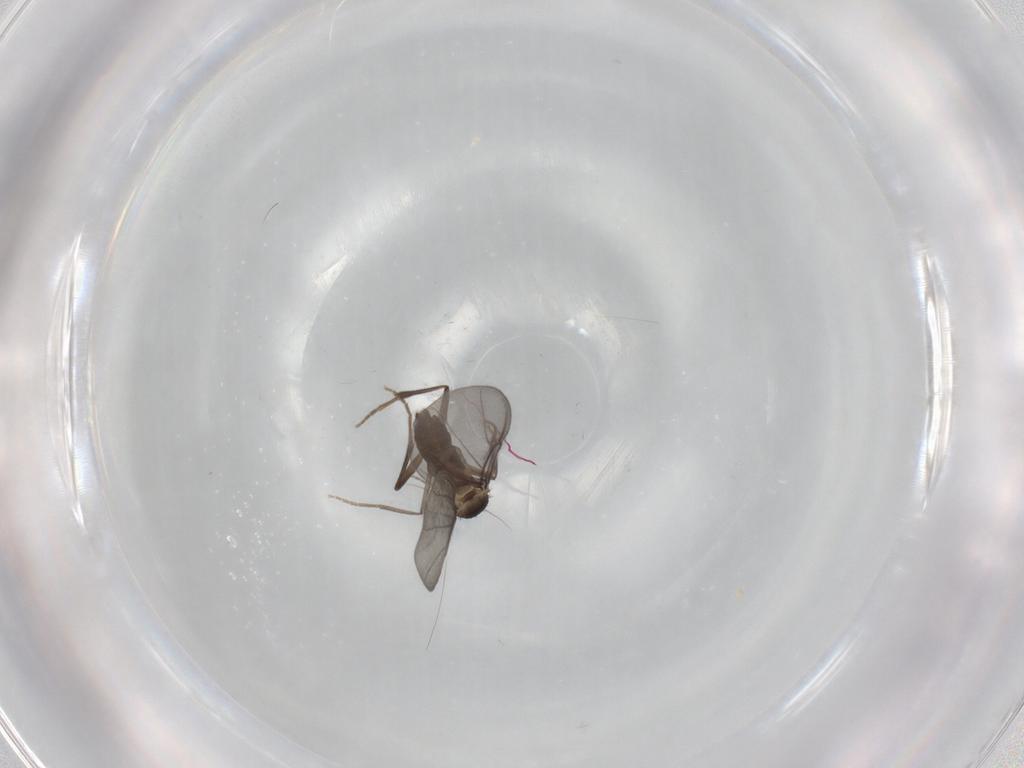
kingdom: Animalia
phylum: Arthropoda
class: Insecta
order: Diptera
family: Phoridae
